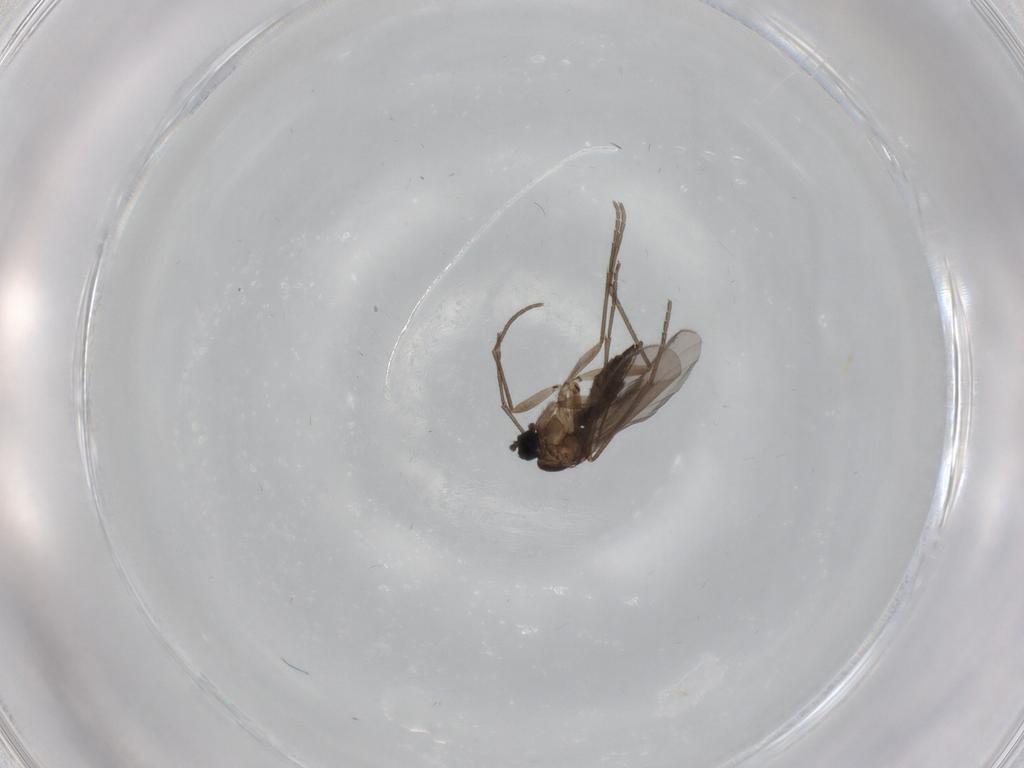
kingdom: Animalia
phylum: Arthropoda
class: Insecta
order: Diptera
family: Sciaridae
